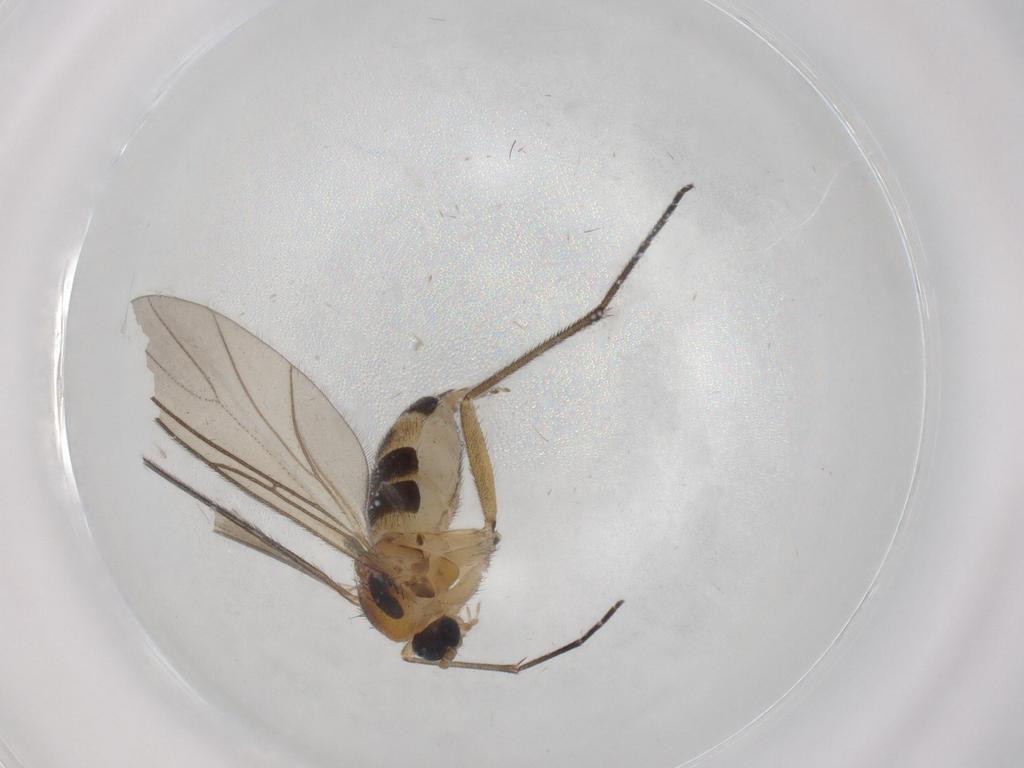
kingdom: Animalia
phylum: Arthropoda
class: Insecta
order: Diptera
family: Sciaridae
